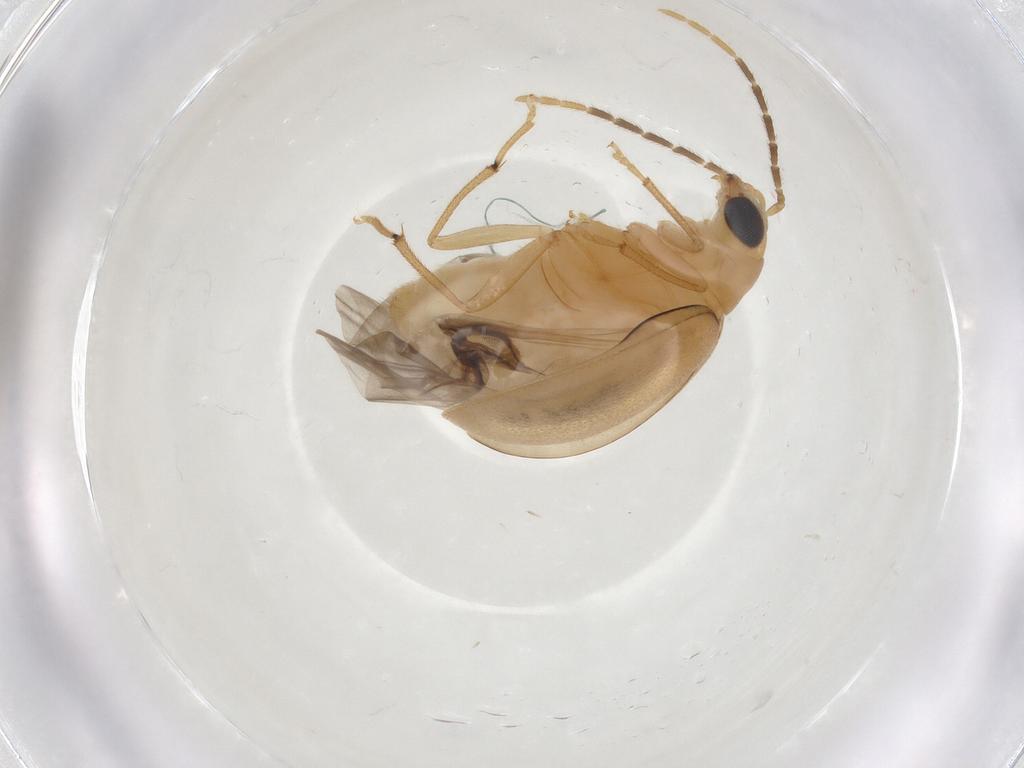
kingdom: Animalia
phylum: Arthropoda
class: Insecta
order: Coleoptera
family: Chrysomelidae
